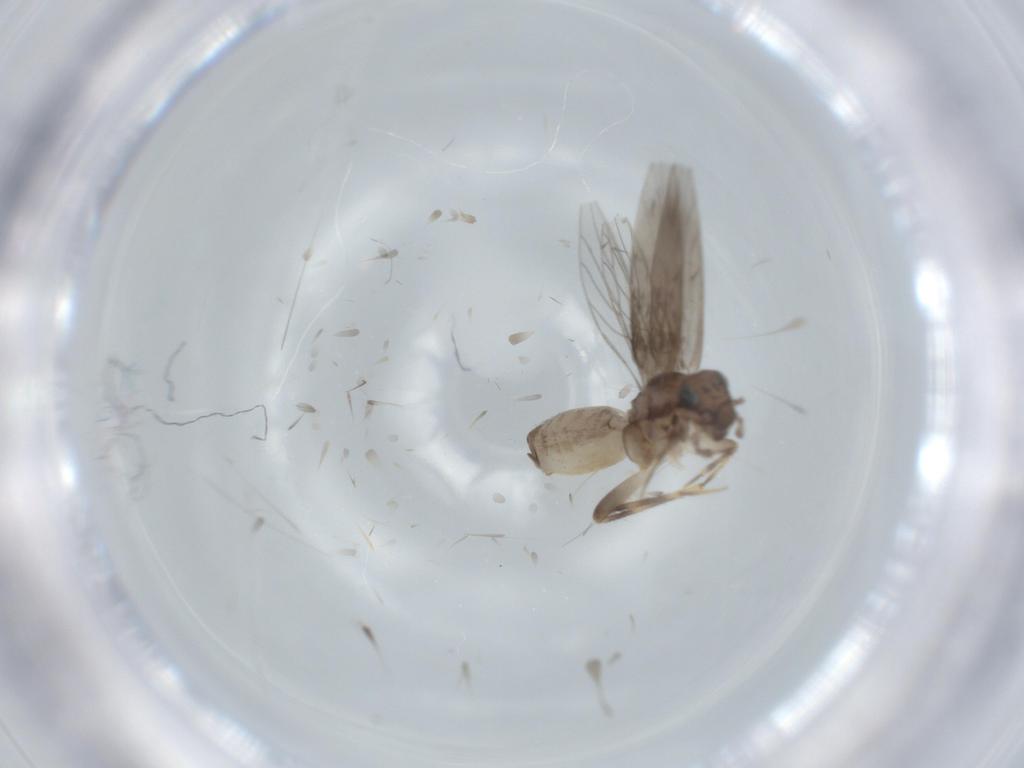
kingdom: Animalia
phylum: Arthropoda
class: Insecta
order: Psocodea
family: Lepidopsocidae
